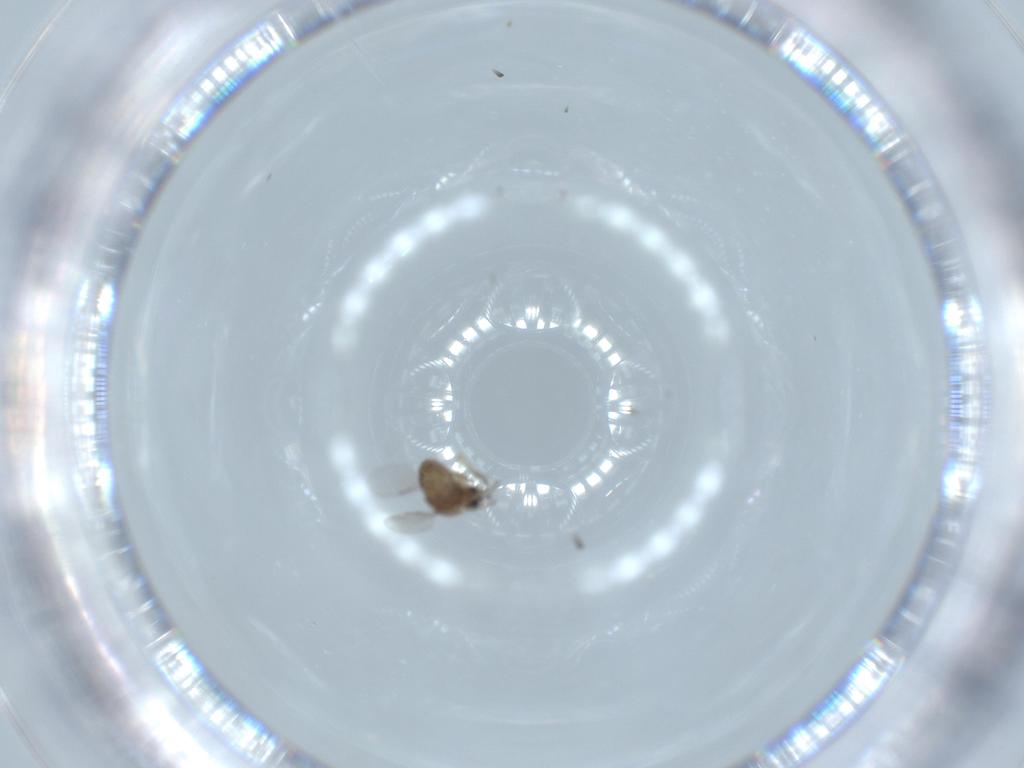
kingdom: Animalia
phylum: Arthropoda
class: Insecta
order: Diptera
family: Ceratopogonidae
